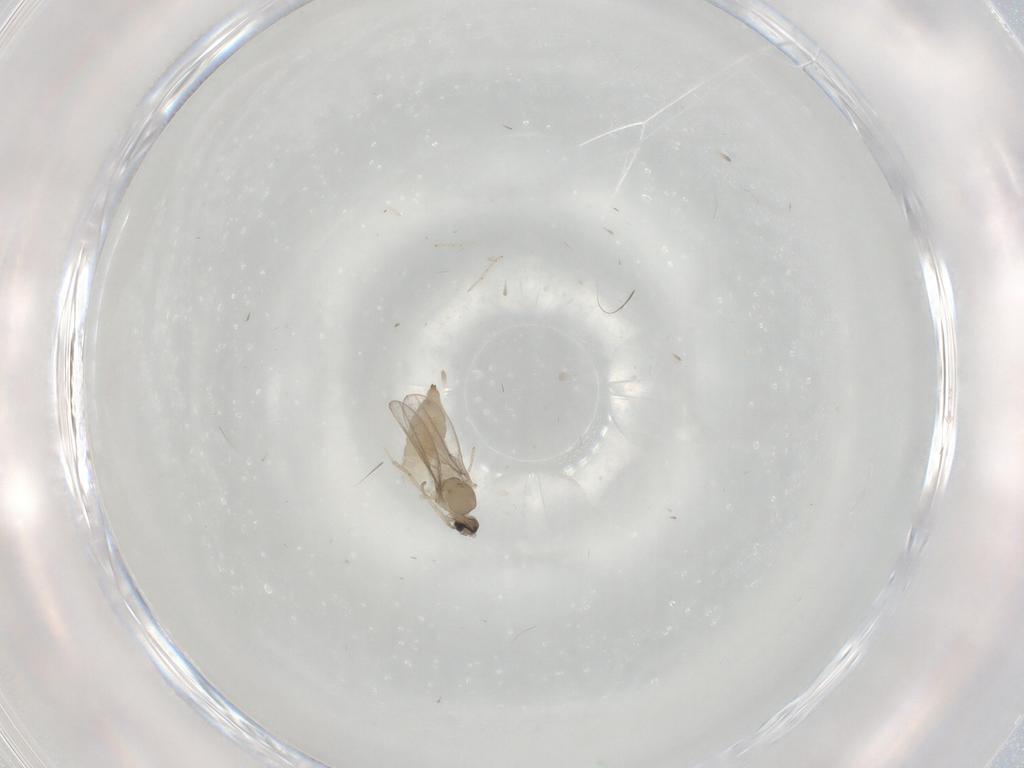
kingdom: Animalia
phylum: Arthropoda
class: Insecta
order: Diptera
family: Cecidomyiidae
